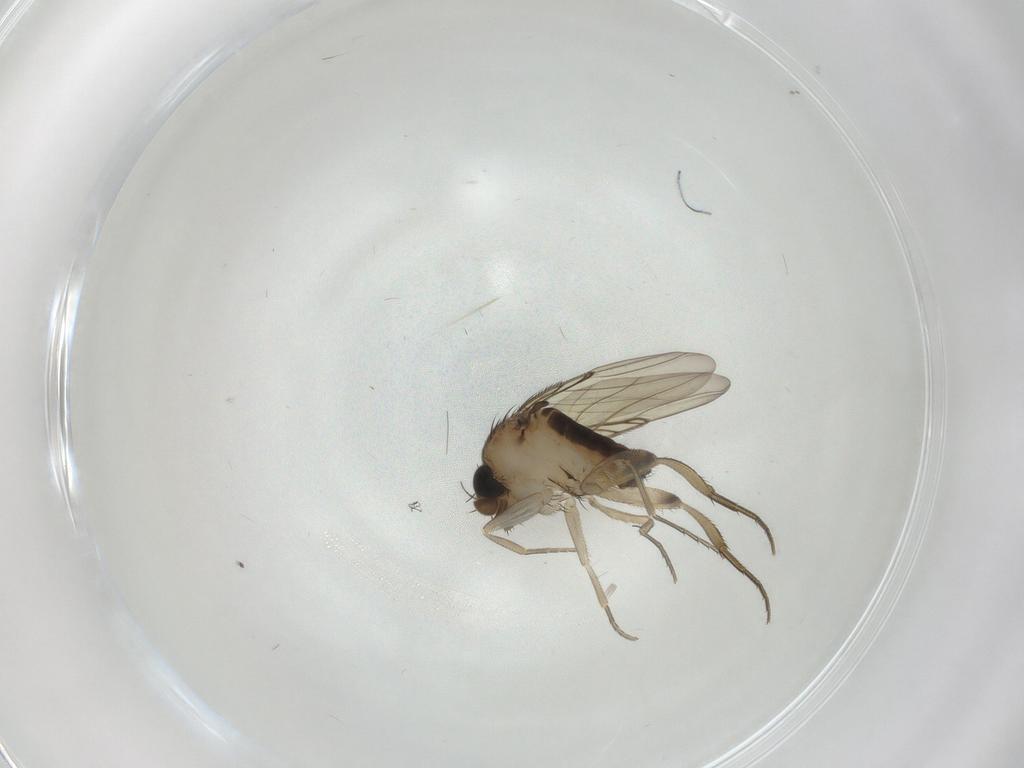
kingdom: Animalia
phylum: Arthropoda
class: Insecta
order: Diptera
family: Phoridae
